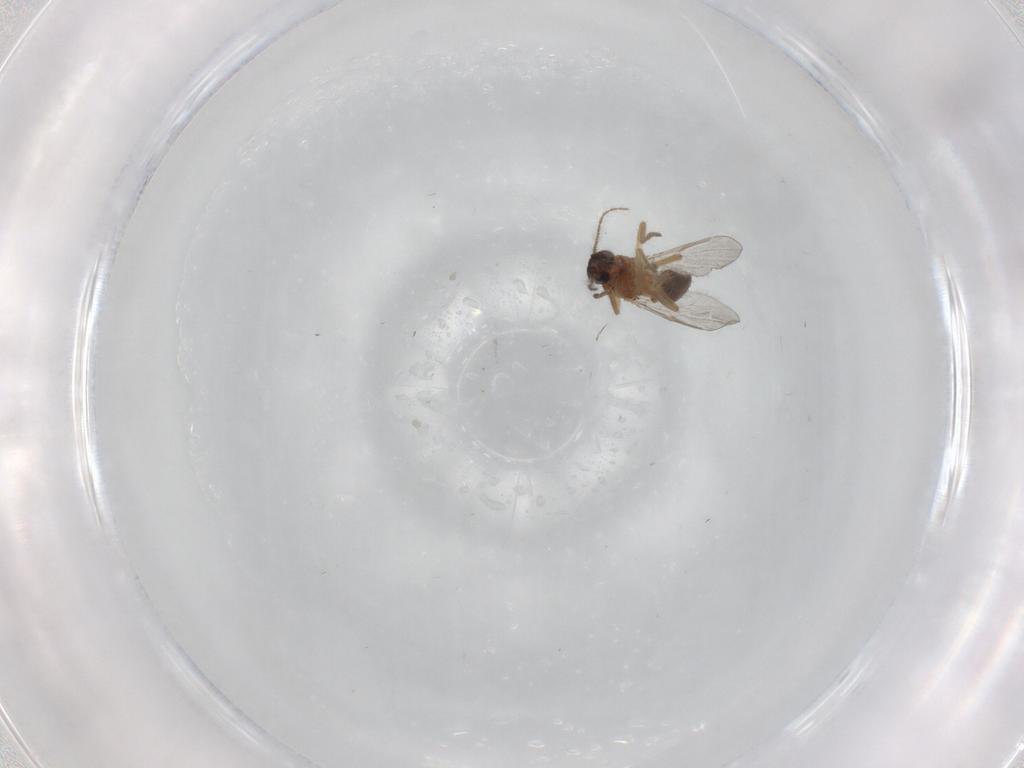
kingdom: Animalia
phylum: Arthropoda
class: Insecta
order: Diptera
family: Ceratopogonidae
